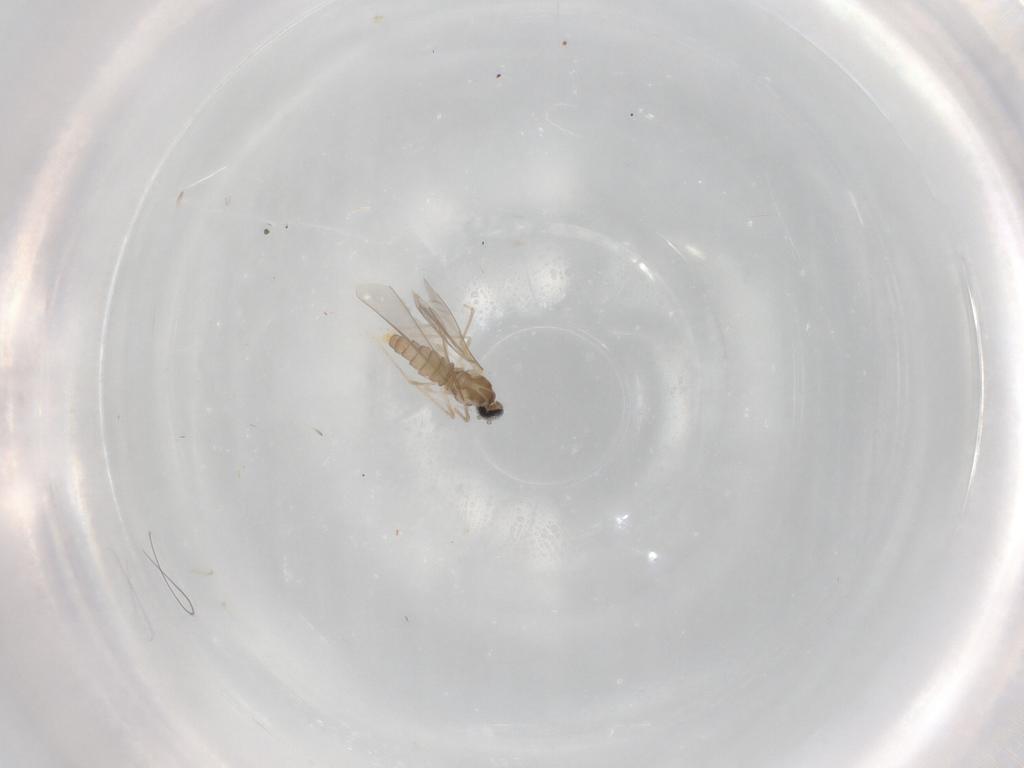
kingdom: Animalia
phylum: Arthropoda
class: Insecta
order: Diptera
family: Cecidomyiidae
